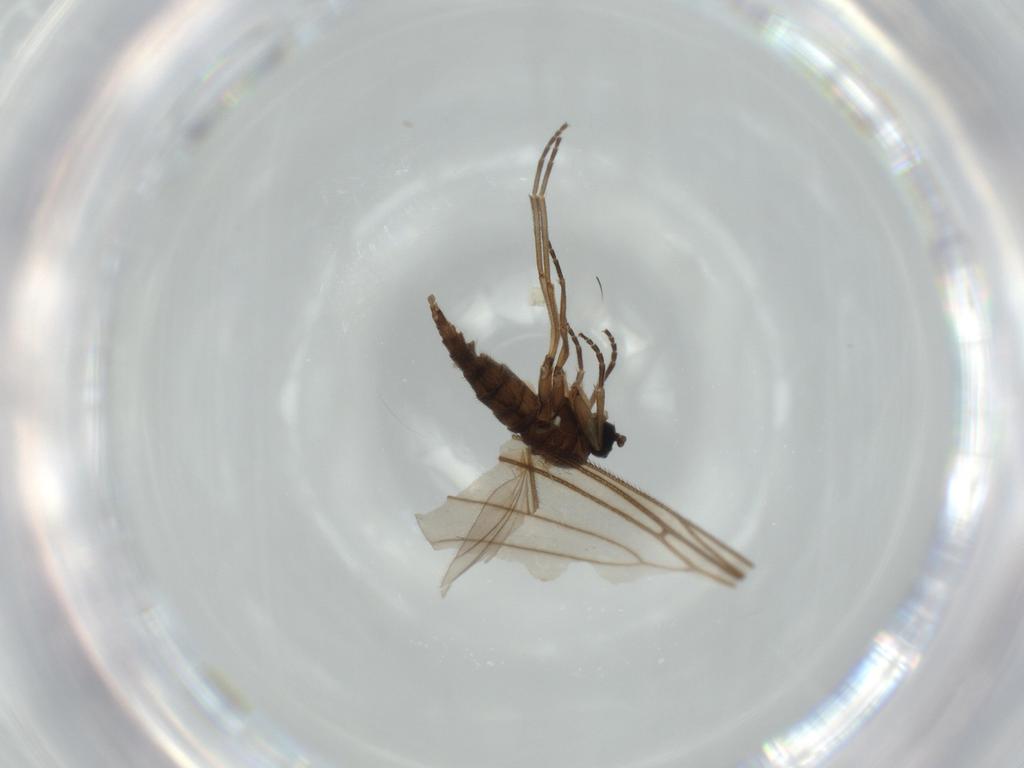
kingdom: Animalia
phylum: Arthropoda
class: Insecta
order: Diptera
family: Sciaridae
